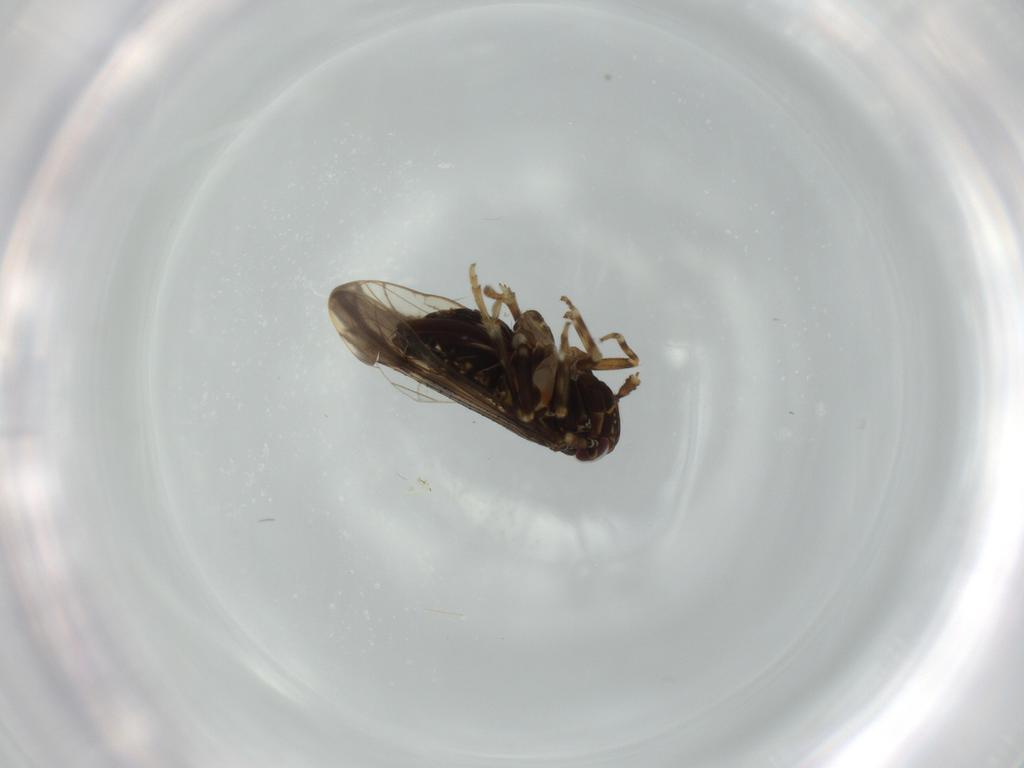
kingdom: Animalia
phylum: Arthropoda
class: Insecta
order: Hemiptera
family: Delphacidae
